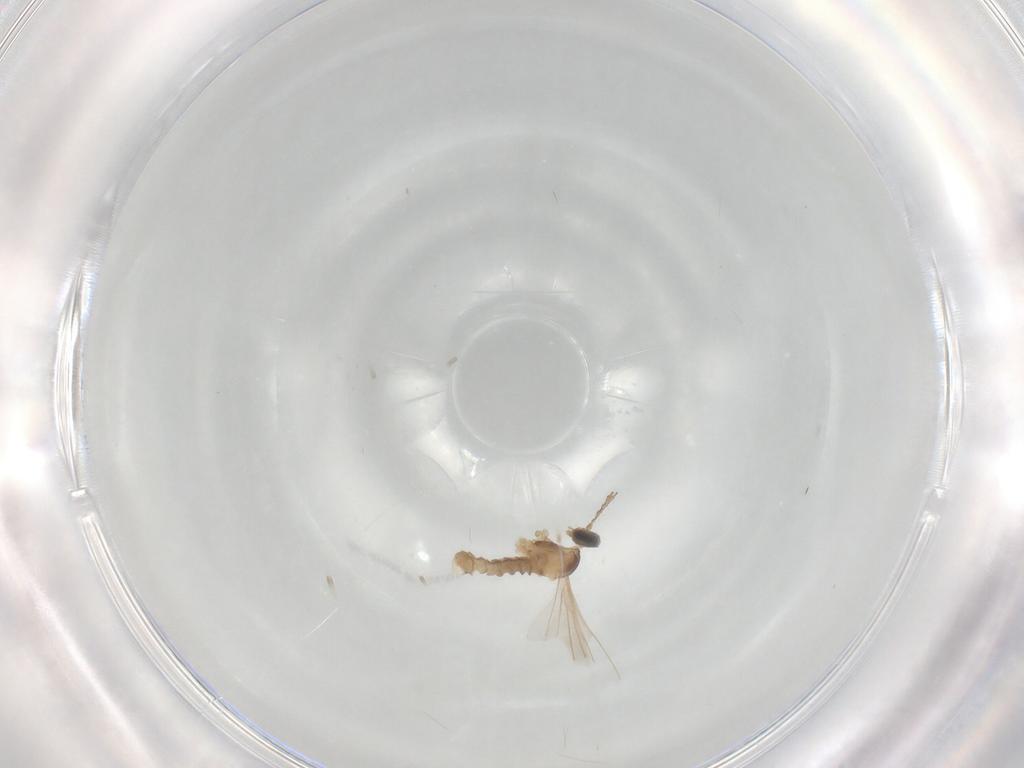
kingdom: Animalia
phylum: Arthropoda
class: Insecta
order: Diptera
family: Cecidomyiidae
